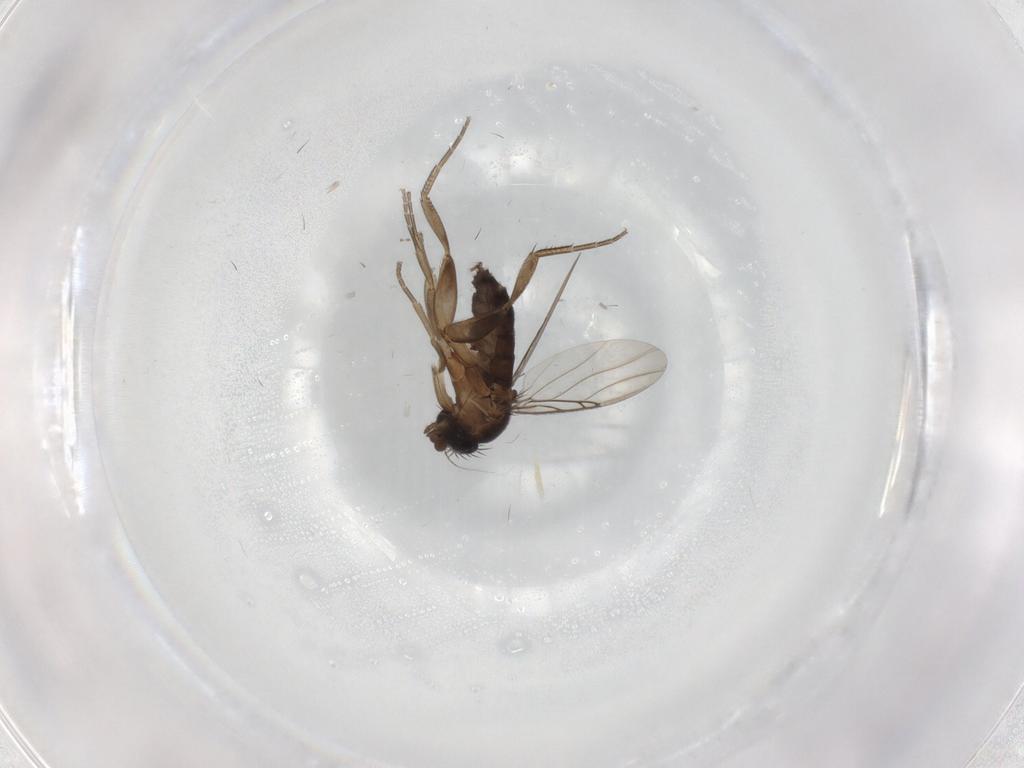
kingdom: Animalia
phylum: Arthropoda
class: Insecta
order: Diptera
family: Phoridae
